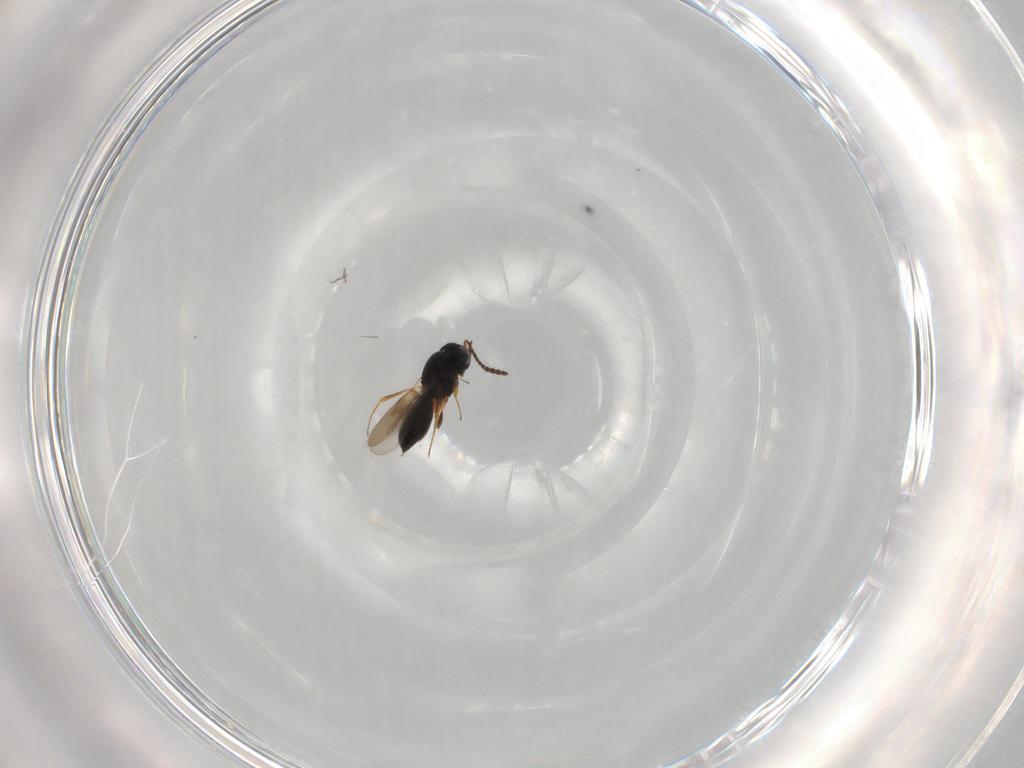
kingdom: Animalia
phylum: Arthropoda
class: Insecta
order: Hymenoptera
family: Scelionidae
